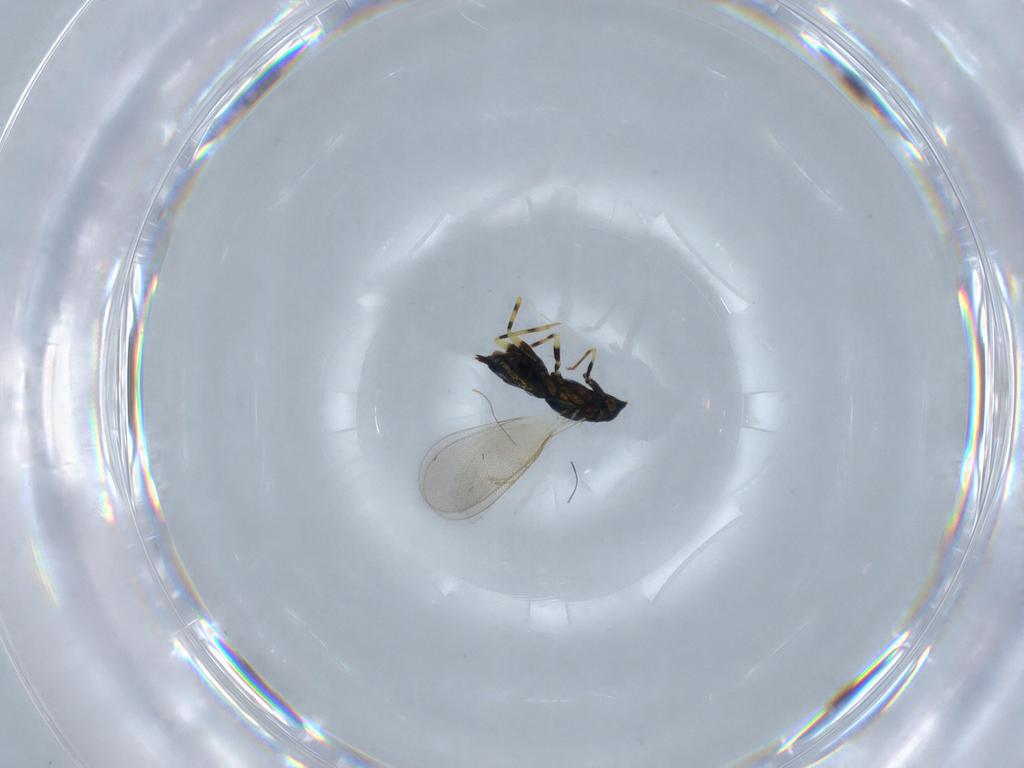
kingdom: Animalia
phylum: Arthropoda
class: Insecta
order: Hymenoptera
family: Eulophidae
